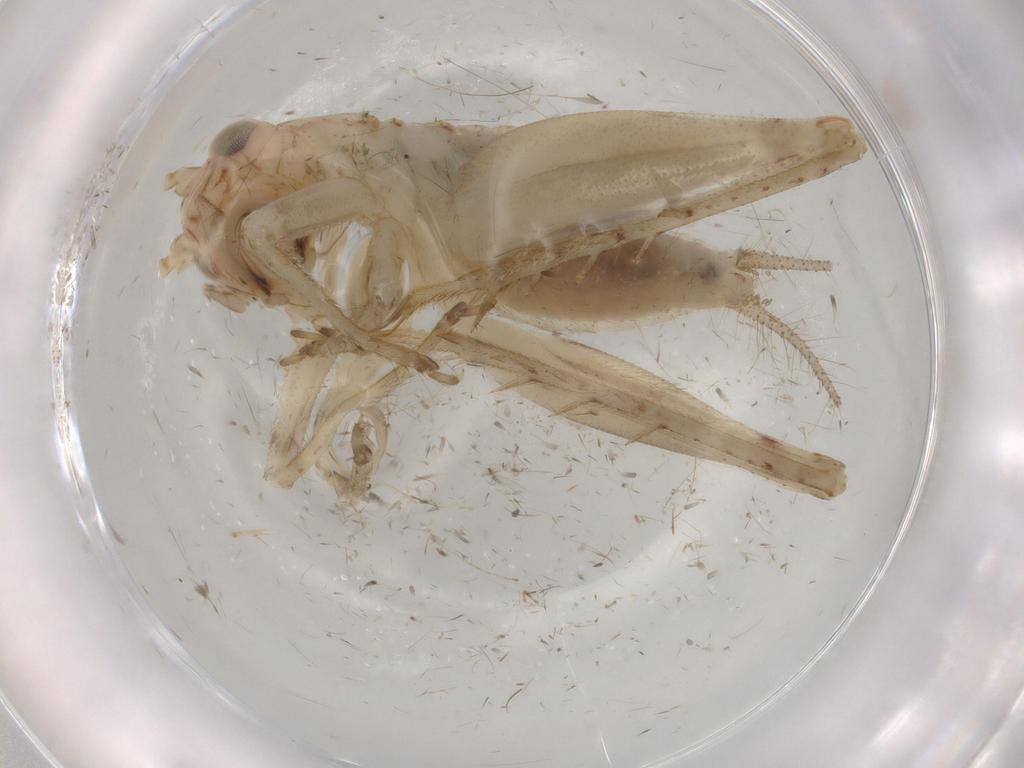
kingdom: Animalia
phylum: Arthropoda
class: Insecta
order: Orthoptera
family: Trigonidiidae
